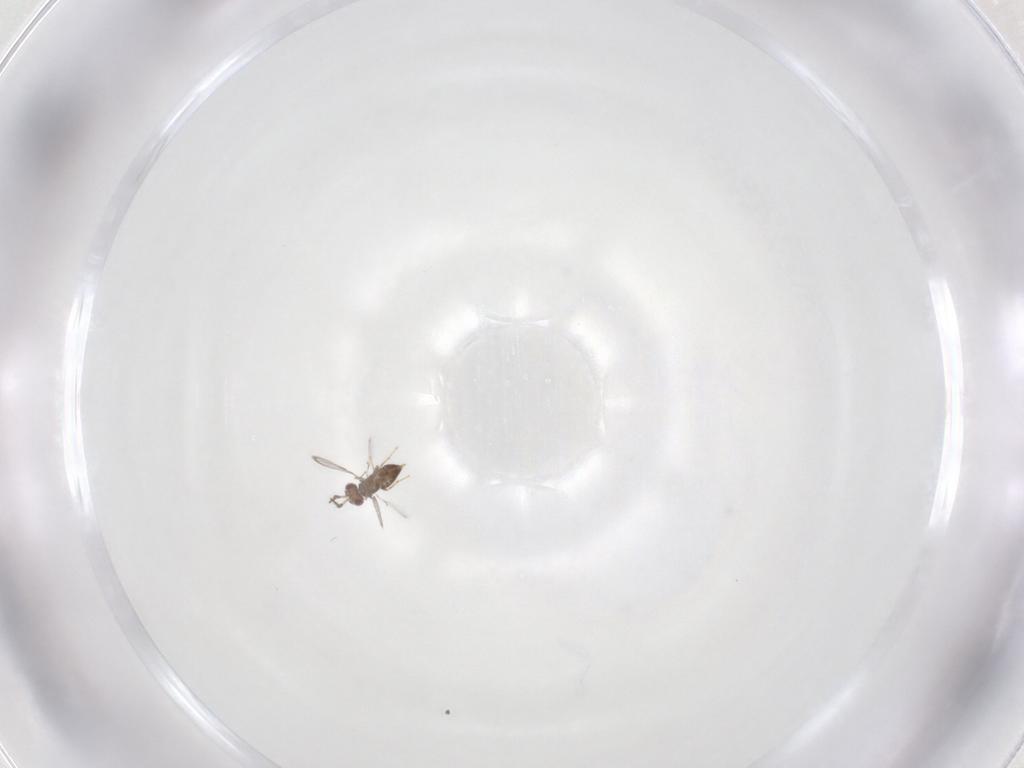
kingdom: Animalia
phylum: Arthropoda
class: Insecta
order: Hymenoptera
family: Trichogrammatidae
